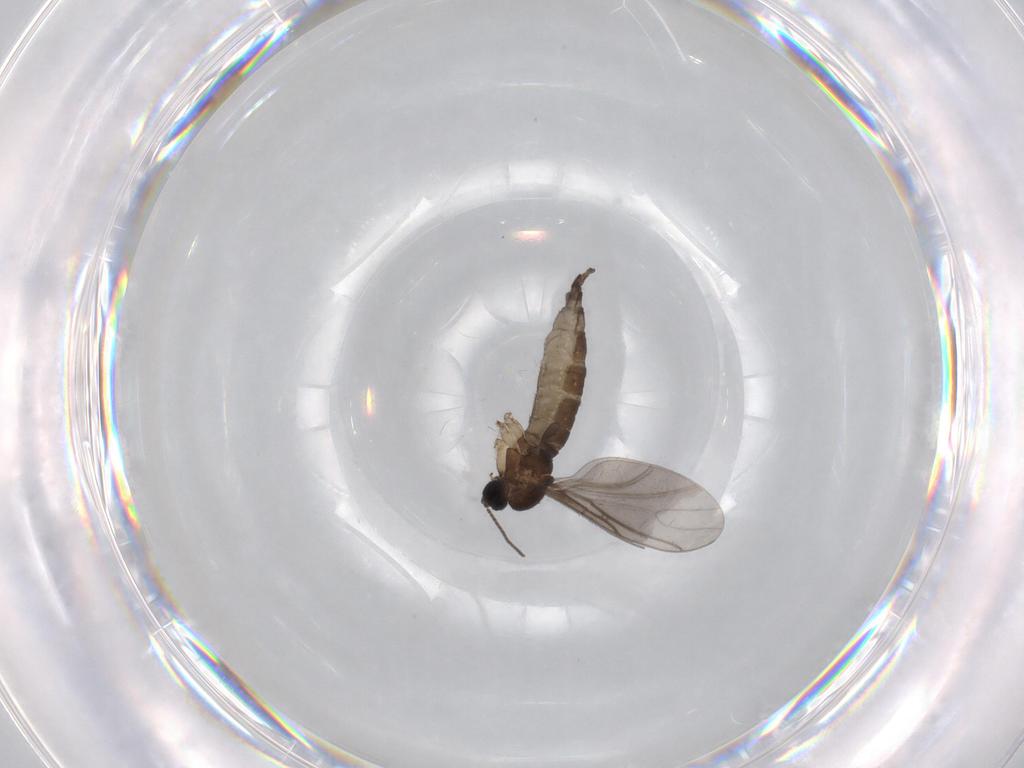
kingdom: Animalia
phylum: Arthropoda
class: Insecta
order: Diptera
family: Sciaridae
